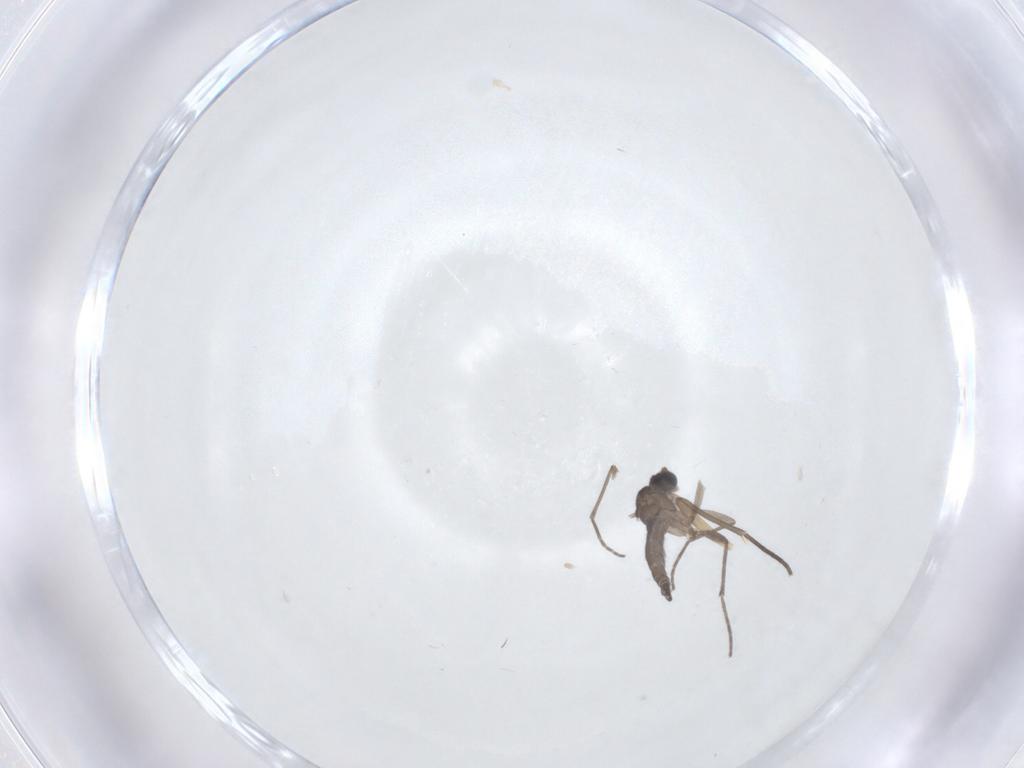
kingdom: Animalia
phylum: Arthropoda
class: Insecta
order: Diptera
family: Sciaridae
